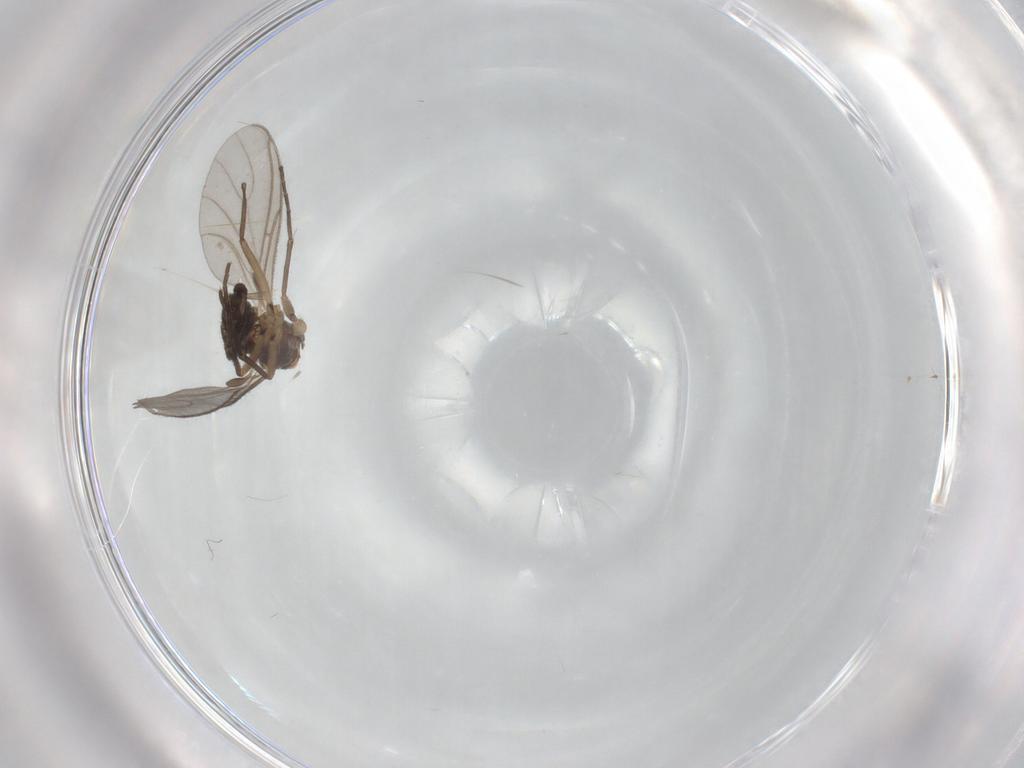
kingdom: Animalia
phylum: Arthropoda
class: Insecta
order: Diptera
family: Sciaridae
